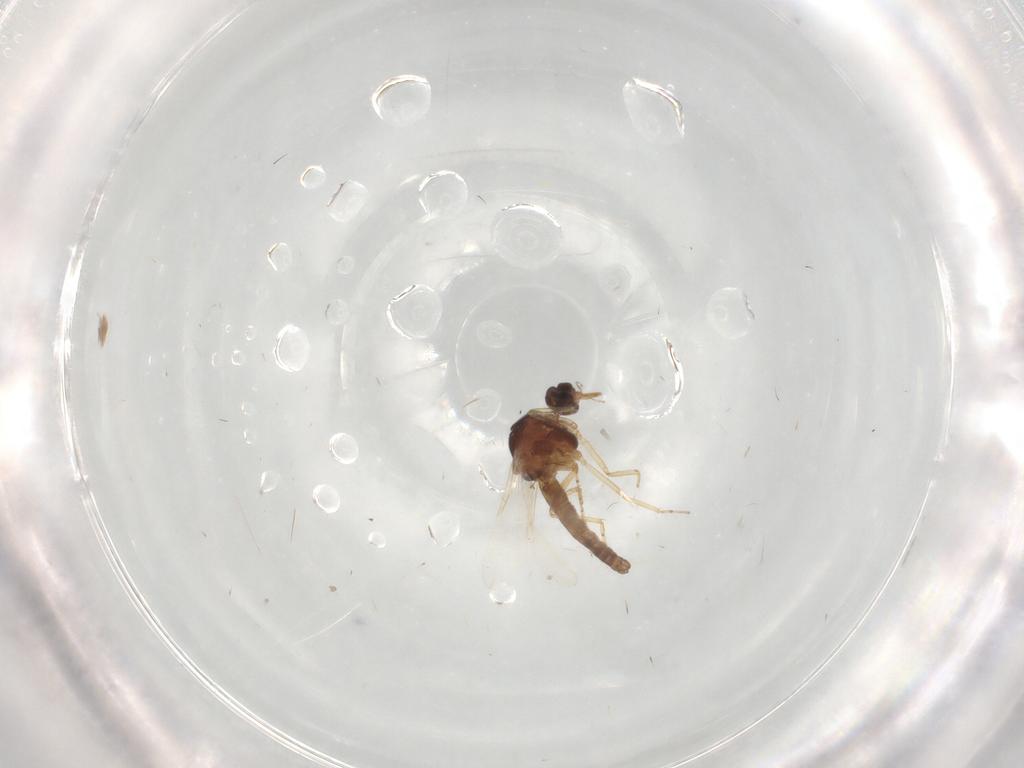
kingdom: Animalia
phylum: Arthropoda
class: Insecta
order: Diptera
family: Ceratopogonidae
